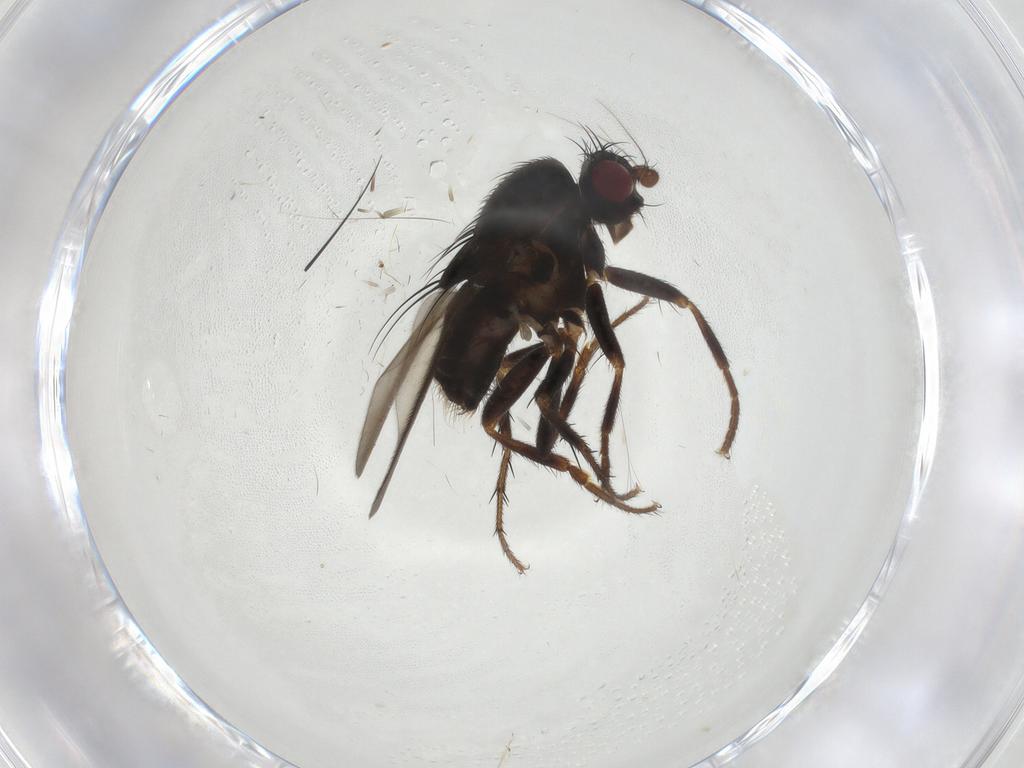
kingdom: Animalia
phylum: Arthropoda
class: Insecta
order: Diptera
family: Sphaeroceridae
